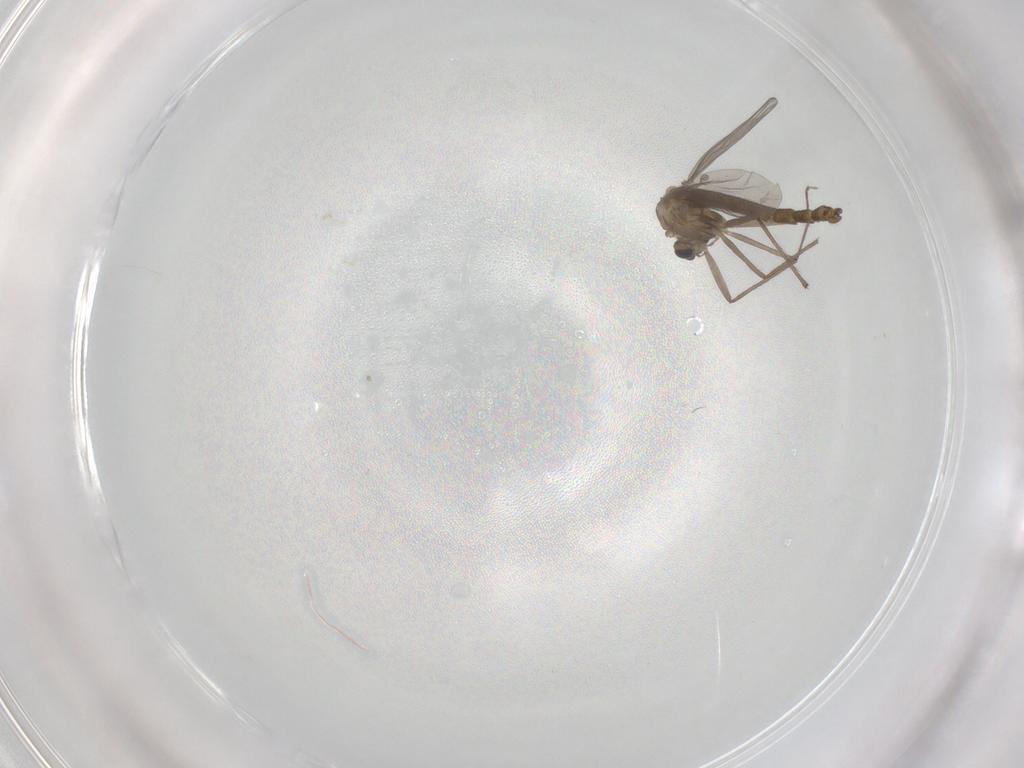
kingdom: Animalia
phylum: Arthropoda
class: Insecta
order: Diptera
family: Chironomidae
